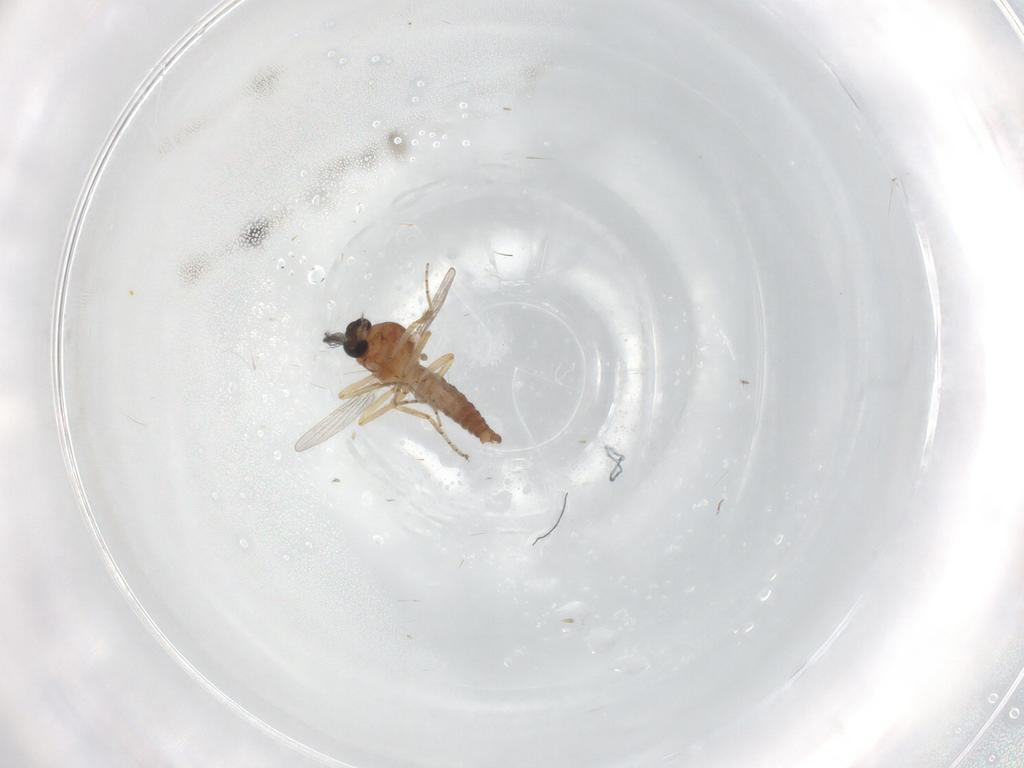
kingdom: Animalia
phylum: Arthropoda
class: Insecta
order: Diptera
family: Ceratopogonidae
